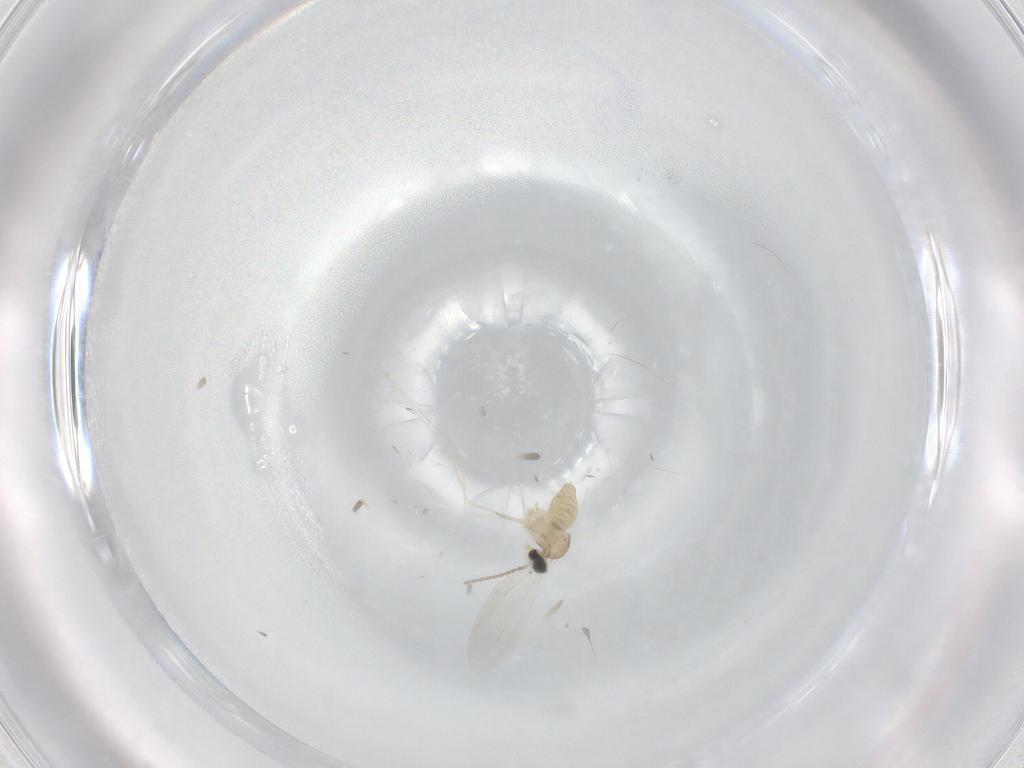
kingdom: Animalia
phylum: Arthropoda
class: Insecta
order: Diptera
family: Cecidomyiidae
